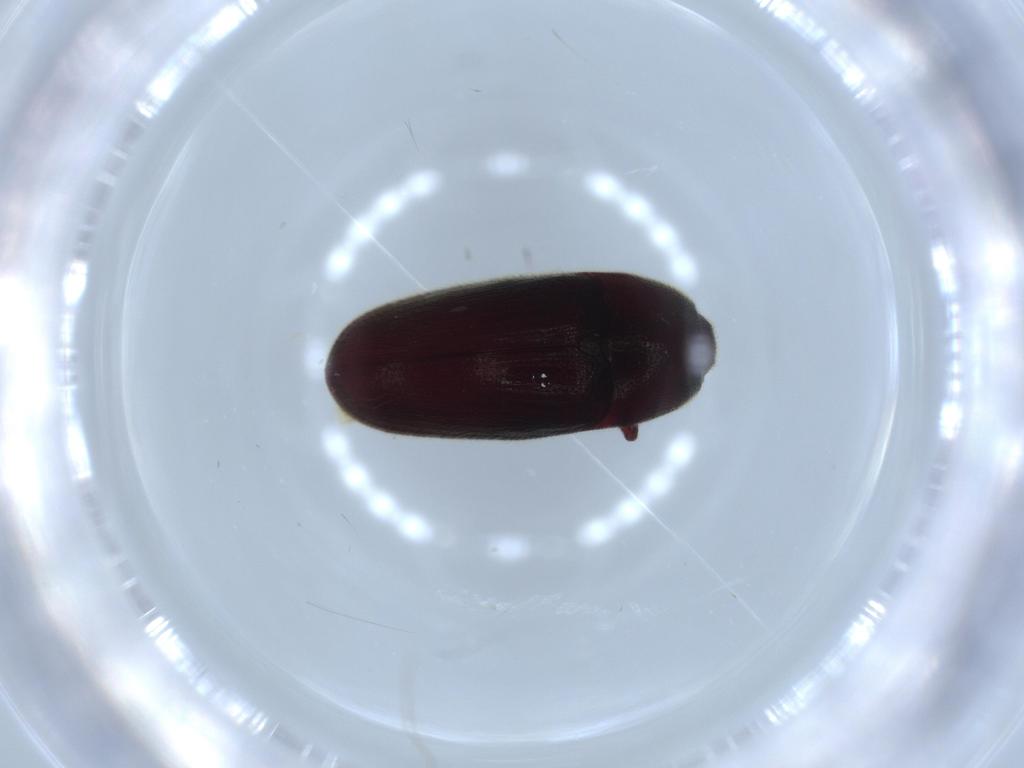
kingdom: Animalia
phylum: Arthropoda
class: Insecta
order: Coleoptera
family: Throscidae
